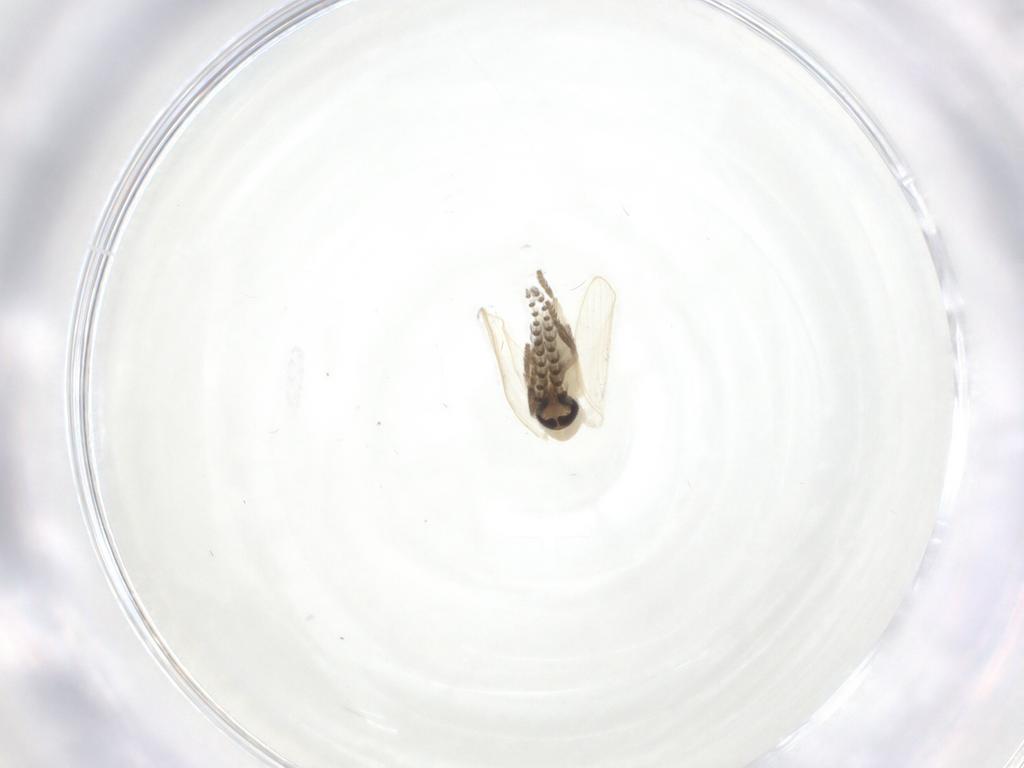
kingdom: Animalia
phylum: Arthropoda
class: Insecta
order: Diptera
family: Psychodidae
